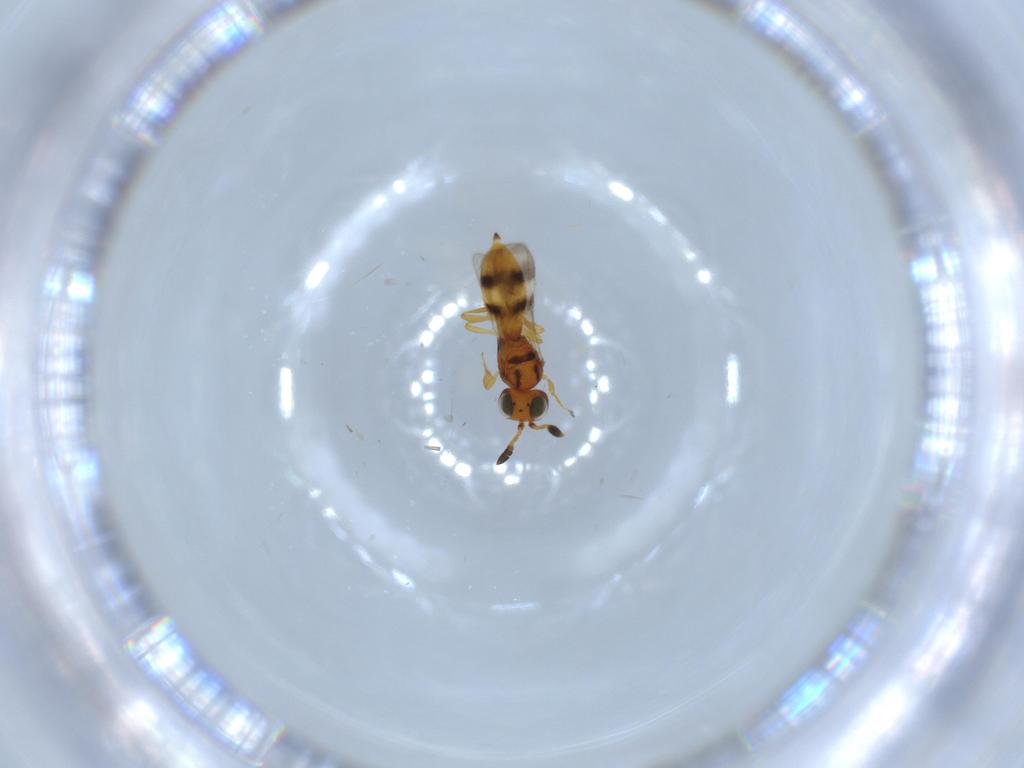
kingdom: Animalia
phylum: Arthropoda
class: Insecta
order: Hymenoptera
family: Scelionidae
